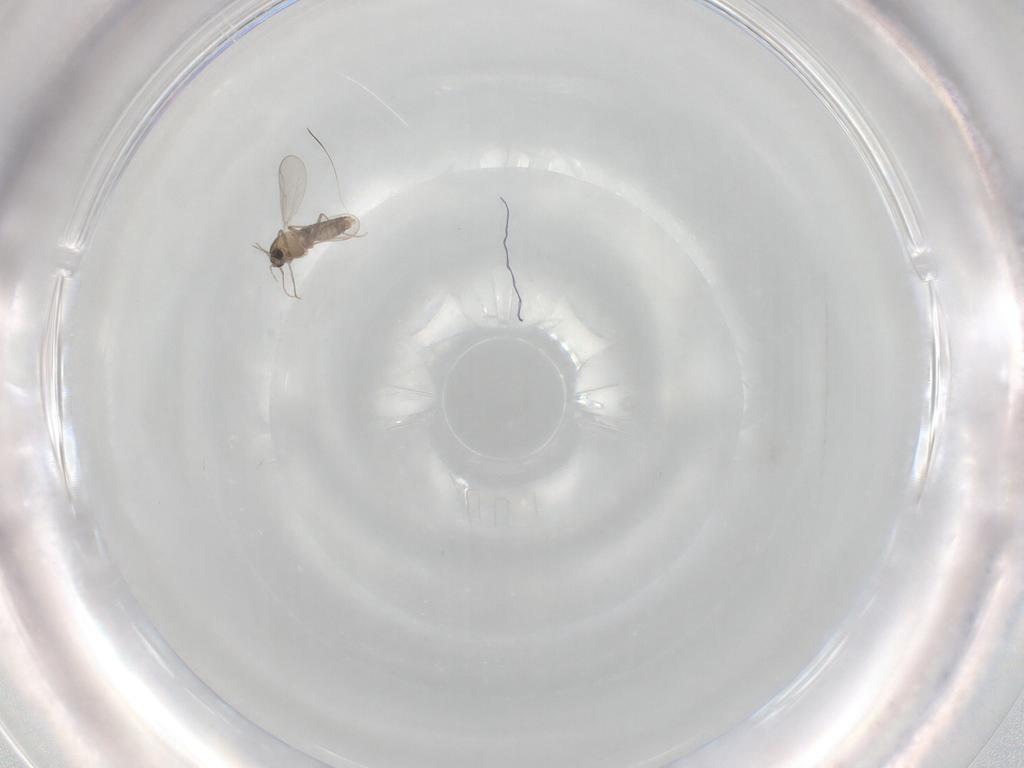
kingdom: Animalia
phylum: Arthropoda
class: Insecta
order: Diptera
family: Chironomidae
